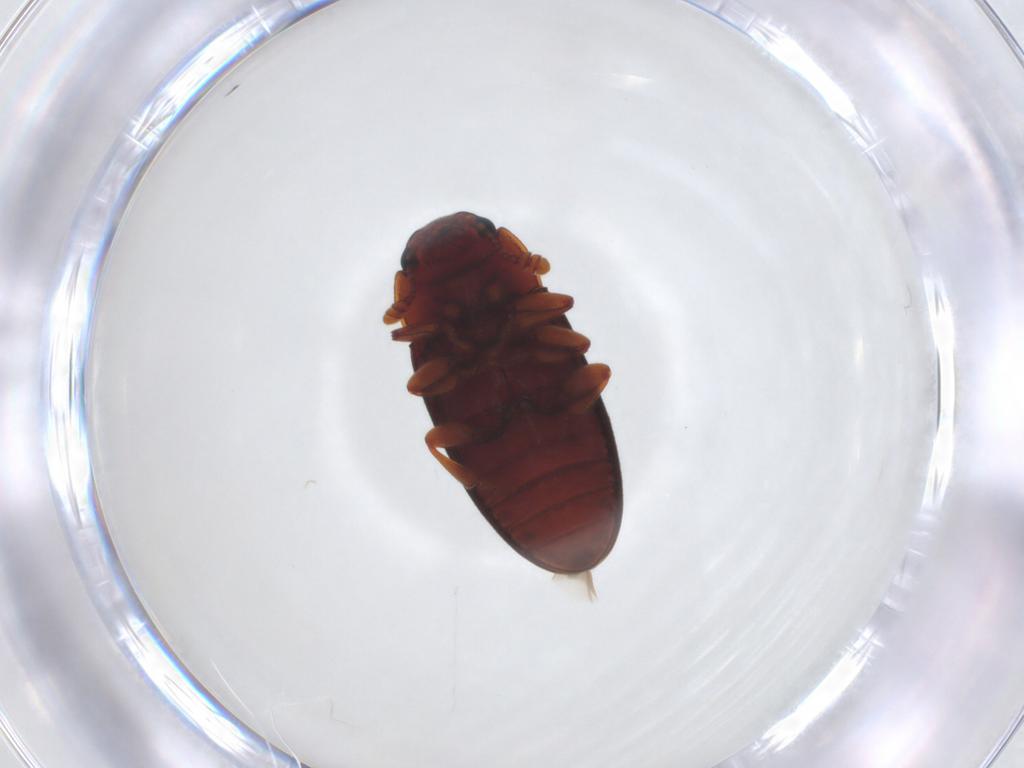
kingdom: Animalia
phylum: Arthropoda
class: Insecta
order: Coleoptera
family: Erotylidae
